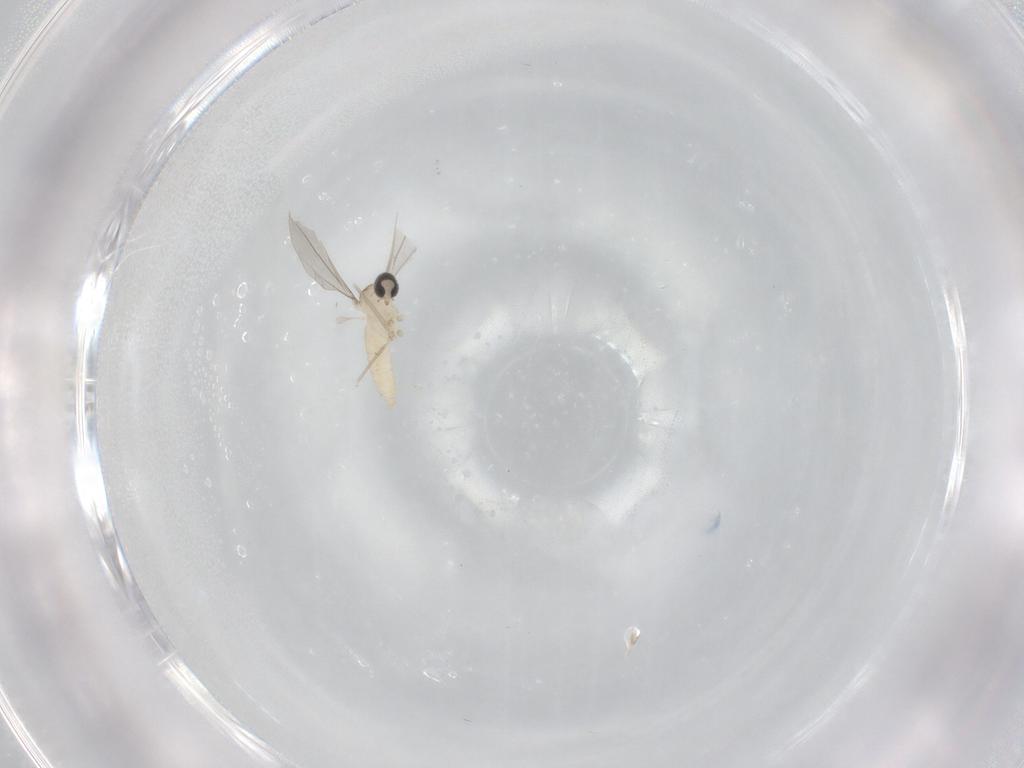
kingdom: Animalia
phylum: Arthropoda
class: Insecta
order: Diptera
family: Phoridae
